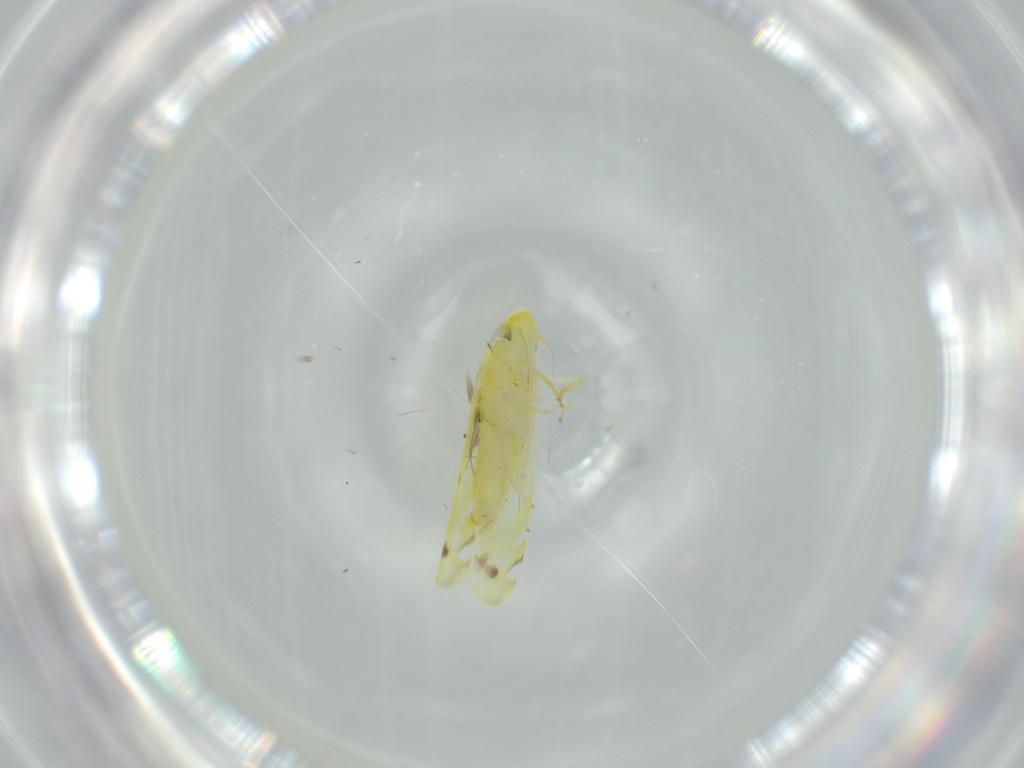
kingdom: Animalia
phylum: Arthropoda
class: Insecta
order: Hemiptera
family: Cicadellidae
